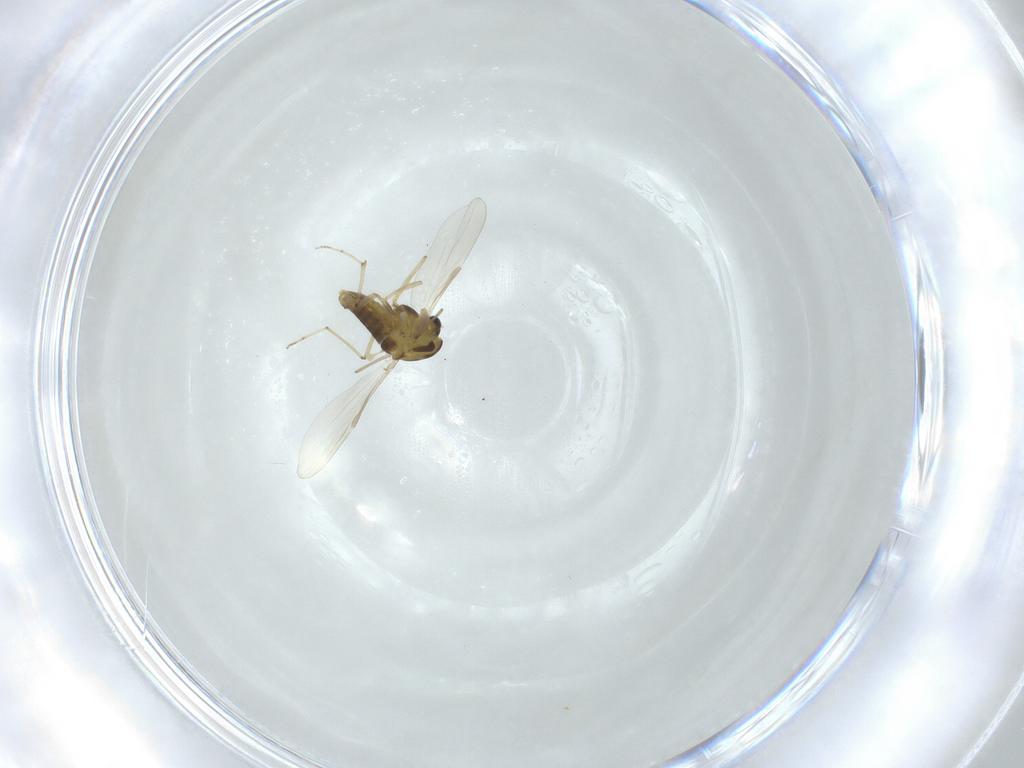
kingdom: Animalia
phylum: Arthropoda
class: Insecta
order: Diptera
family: Chironomidae
